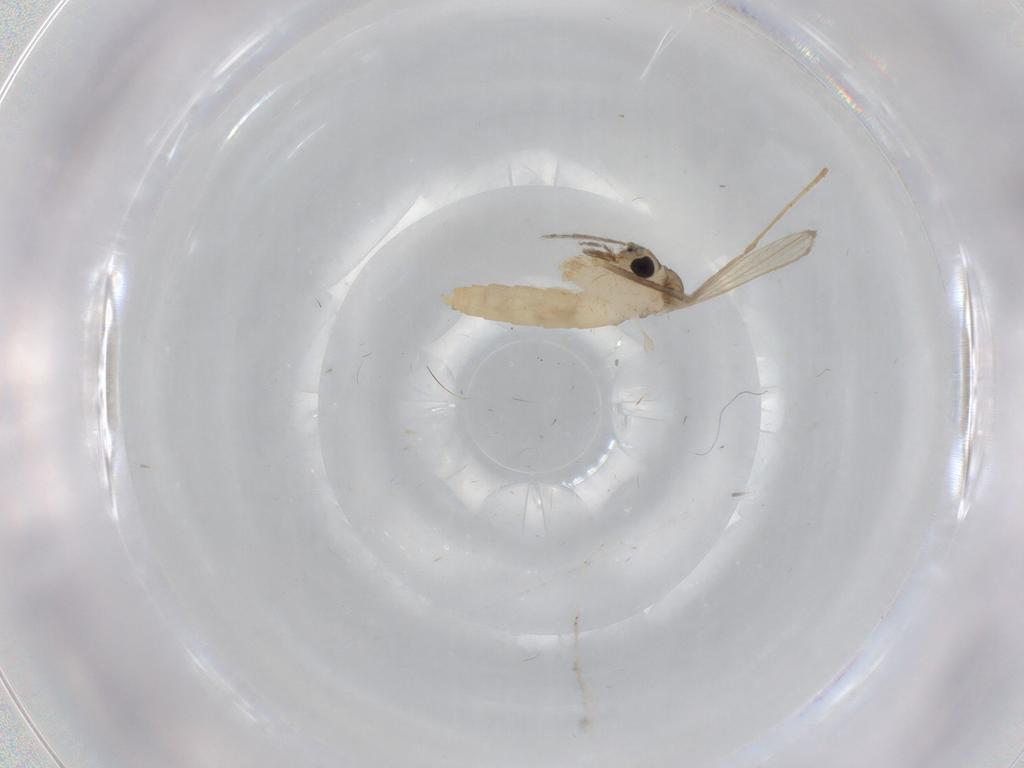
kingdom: Animalia
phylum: Arthropoda
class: Insecta
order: Diptera
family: Psychodidae
